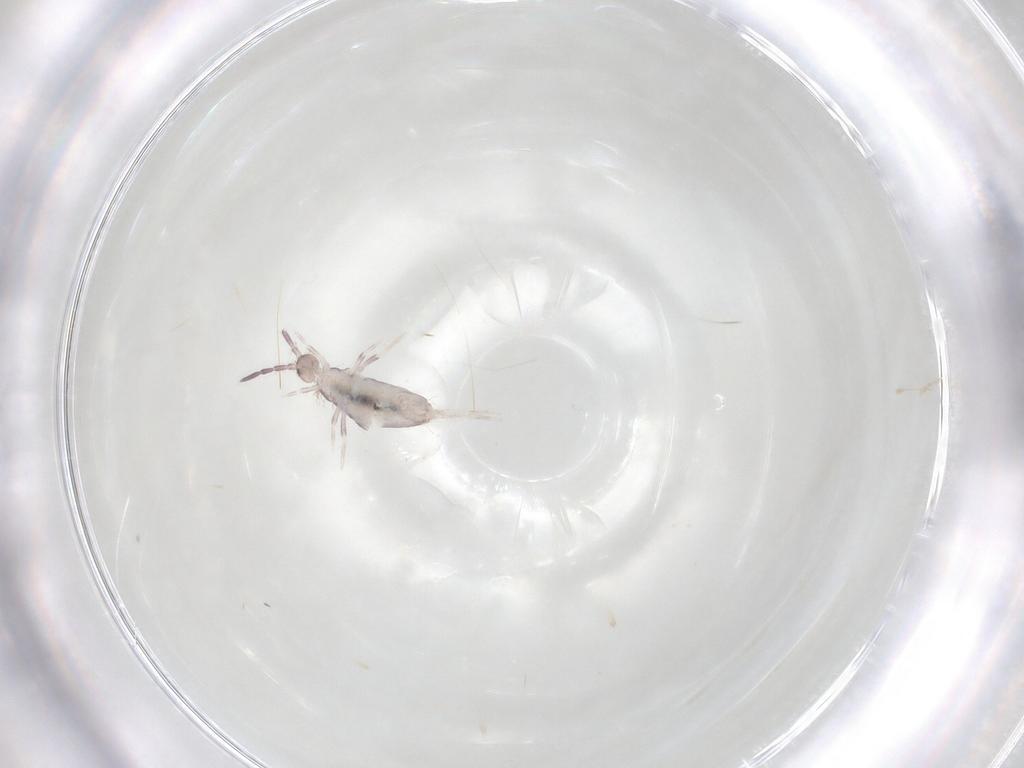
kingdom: Animalia
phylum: Arthropoda
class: Collembola
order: Poduromorpha
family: Hypogastruridae
